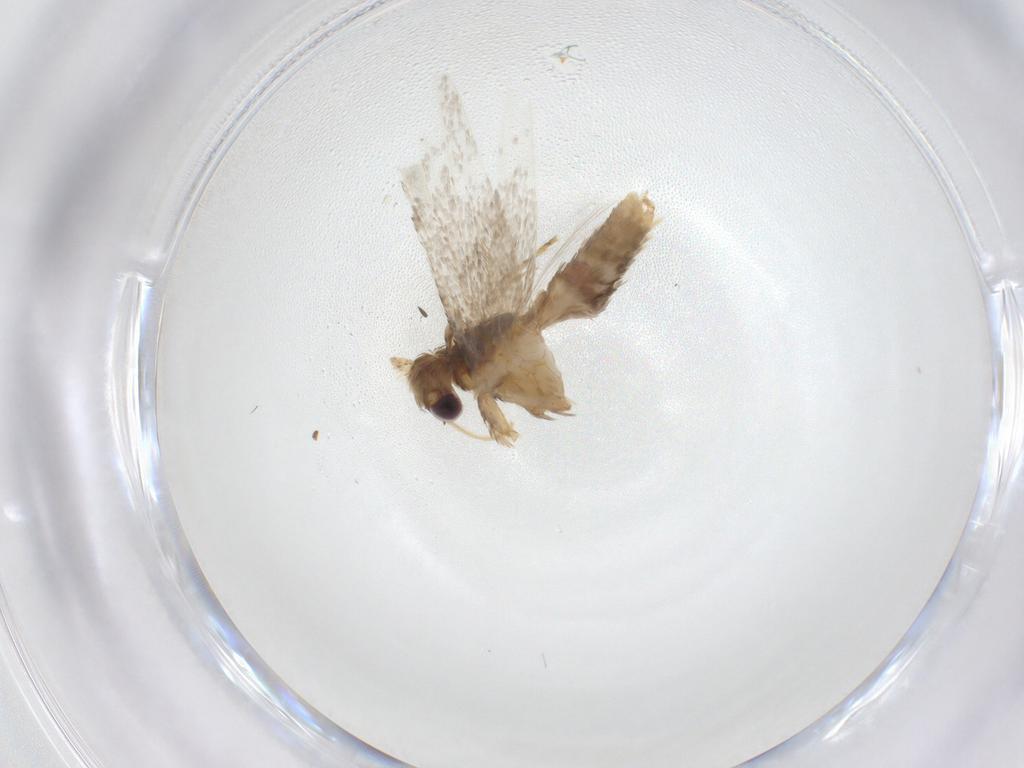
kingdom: Animalia
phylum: Arthropoda
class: Insecta
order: Lepidoptera
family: Blastobasidae
